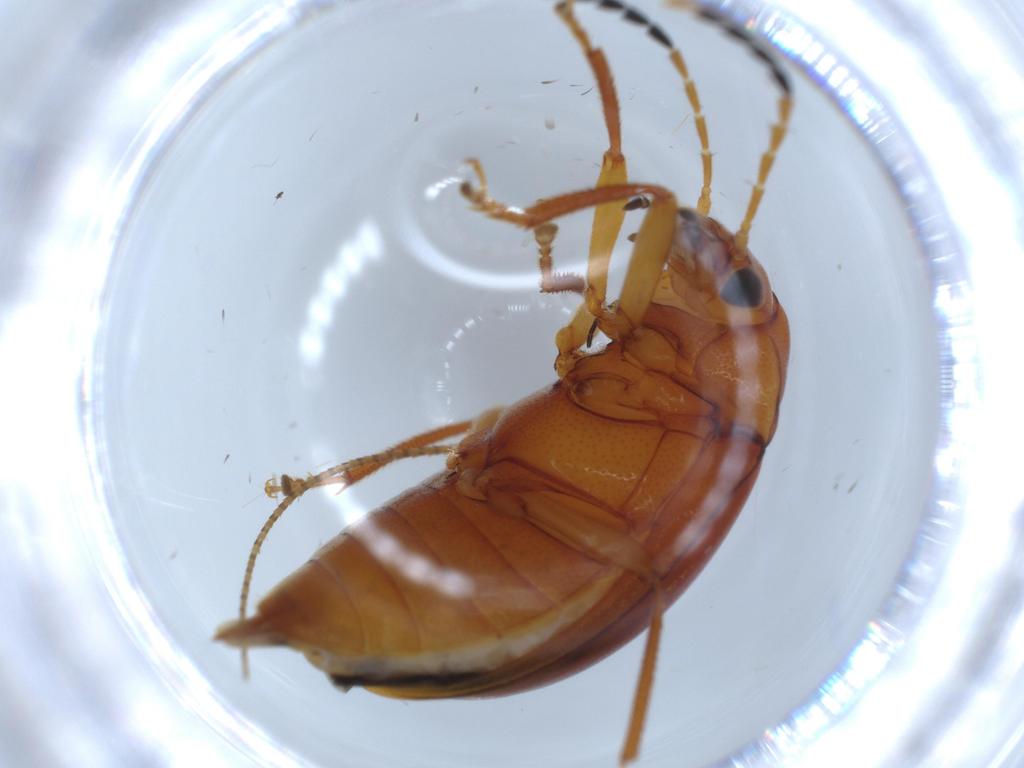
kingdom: Animalia
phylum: Arthropoda
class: Insecta
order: Coleoptera
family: Ptilodactylidae
